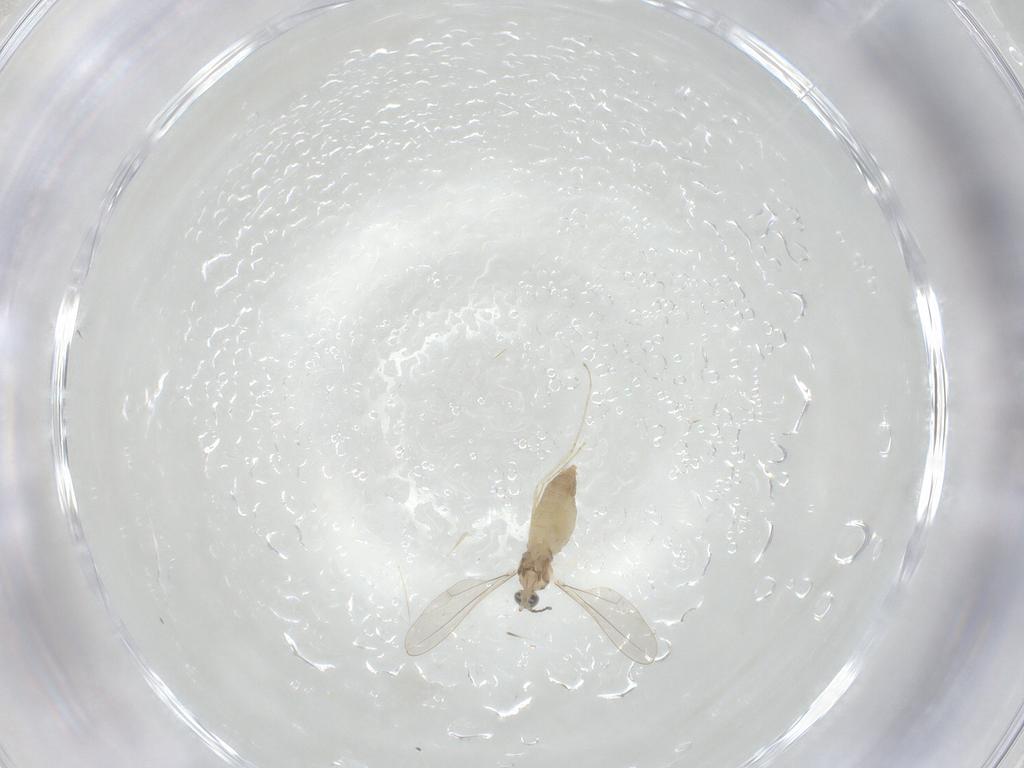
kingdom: Animalia
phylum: Arthropoda
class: Insecta
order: Diptera
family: Cecidomyiidae
